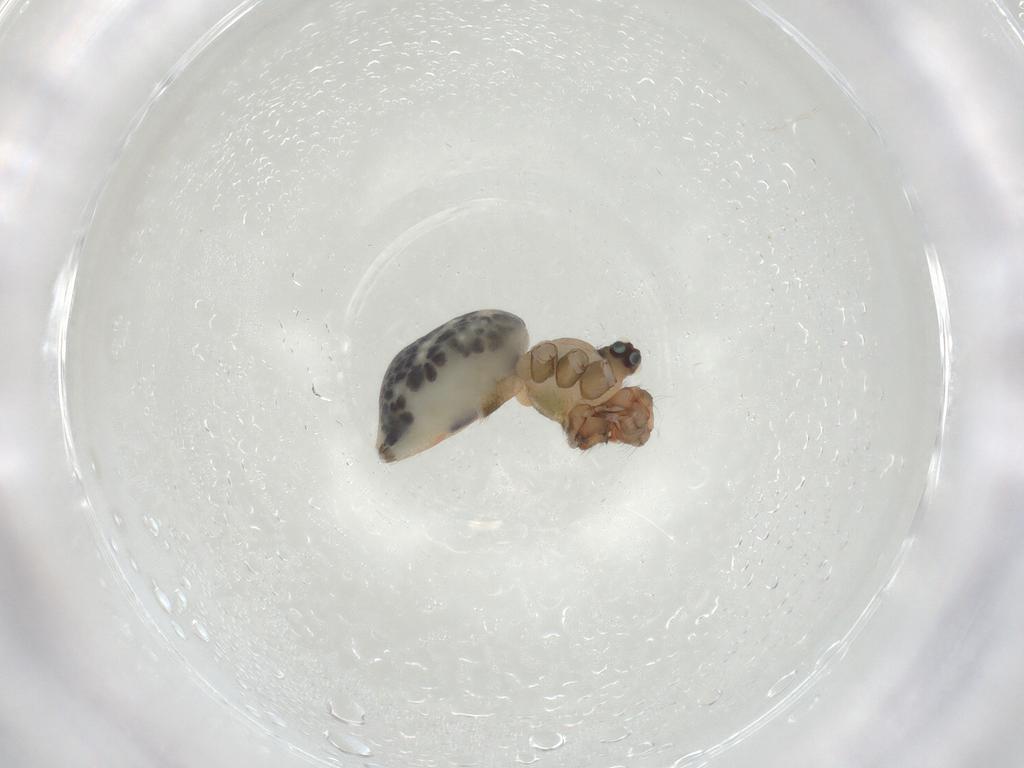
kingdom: Animalia
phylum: Arthropoda
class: Arachnida
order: Araneae
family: Pholcidae
